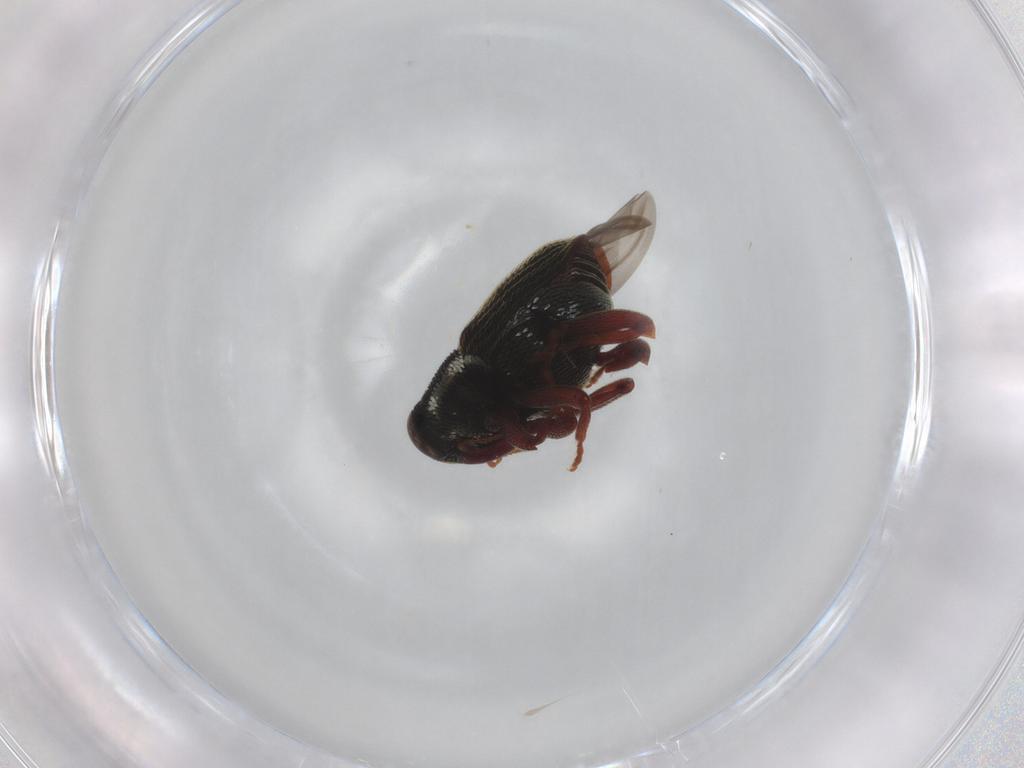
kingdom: Animalia
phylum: Arthropoda
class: Insecta
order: Coleoptera
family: Curculionidae
